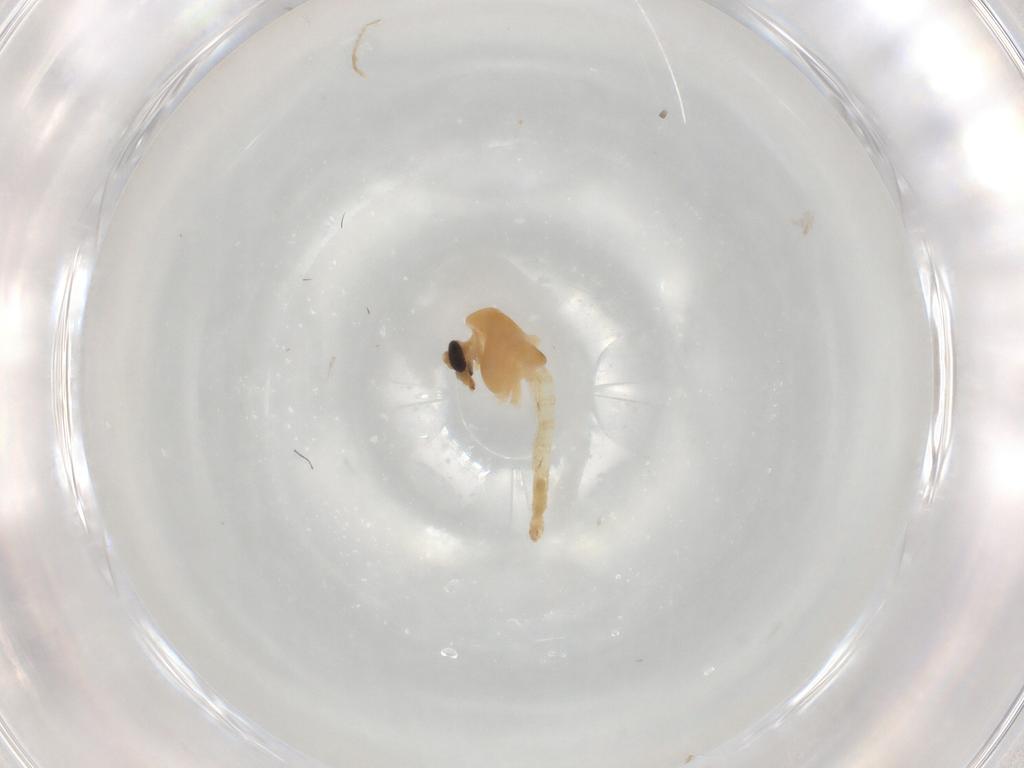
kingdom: Animalia
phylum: Arthropoda
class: Insecta
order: Diptera
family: Chironomidae
